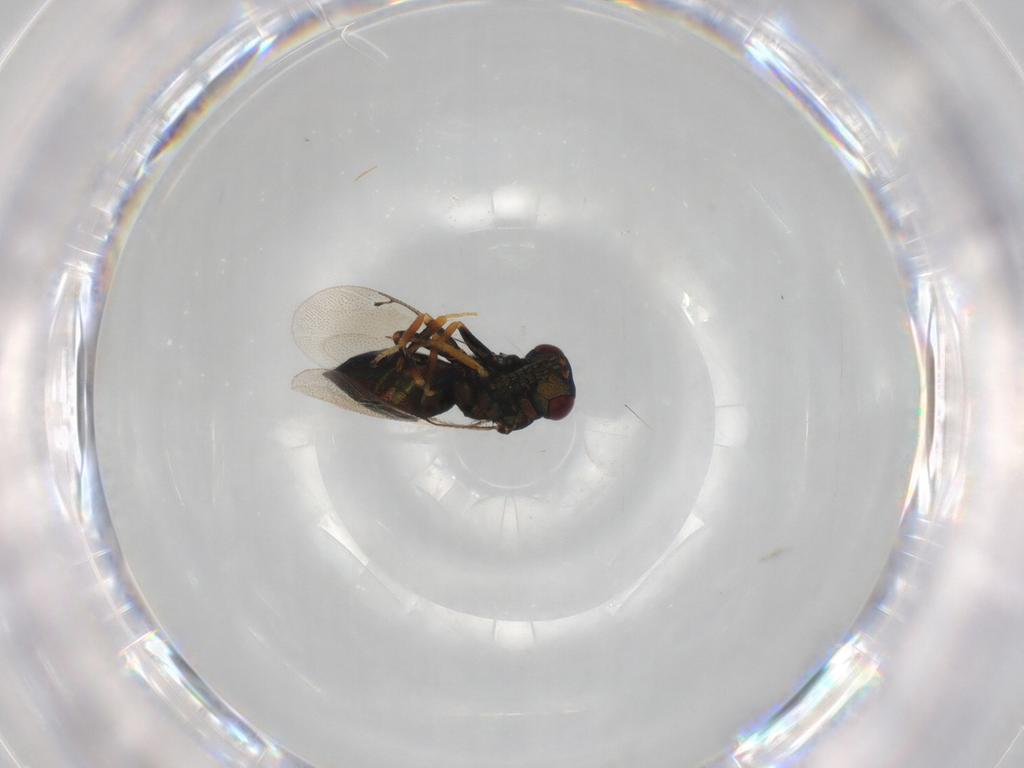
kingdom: Animalia
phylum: Arthropoda
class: Insecta
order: Hymenoptera
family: Pteromalidae
